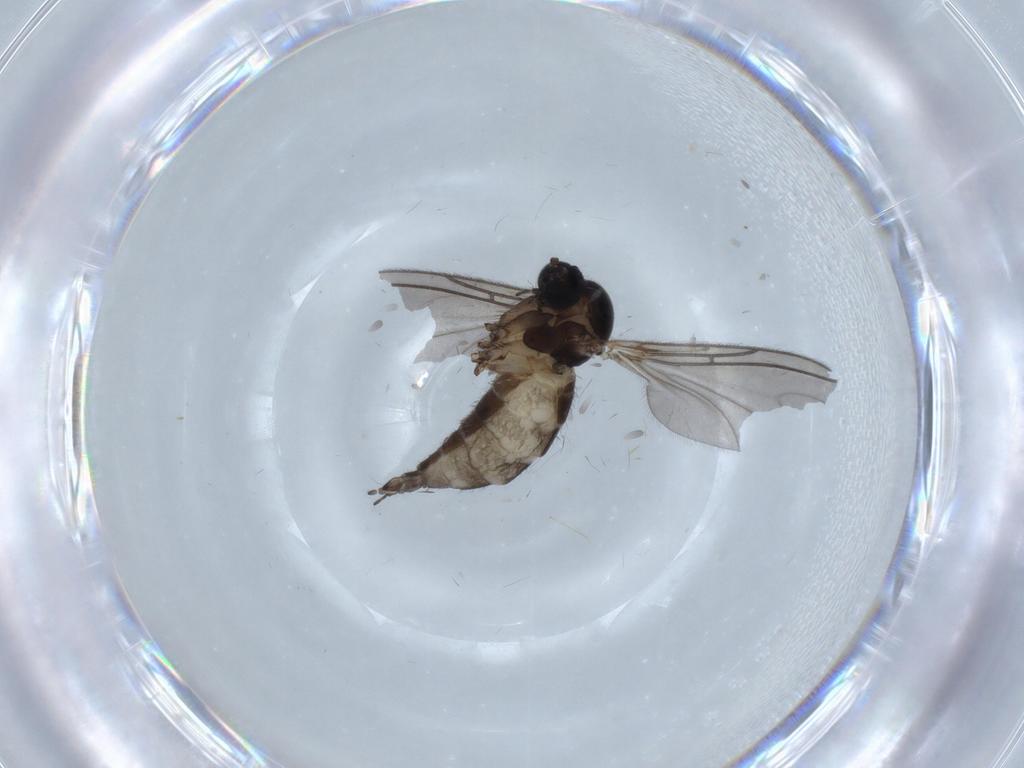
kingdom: Animalia
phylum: Arthropoda
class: Insecta
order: Diptera
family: Sciaridae
